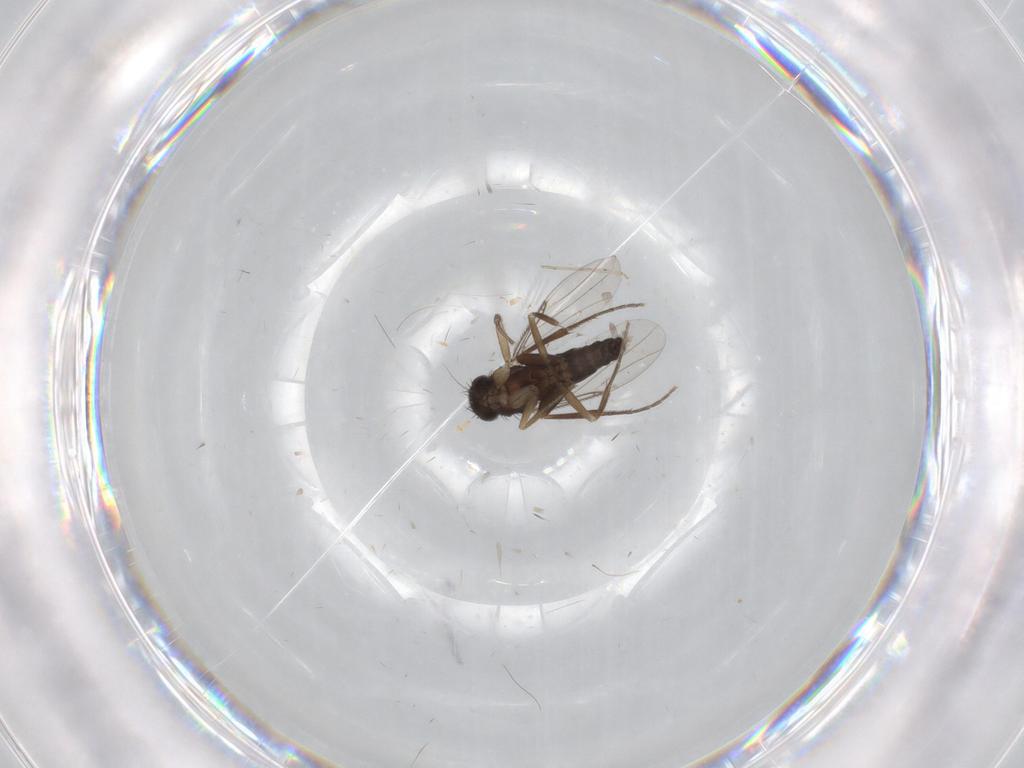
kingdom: Animalia
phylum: Arthropoda
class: Insecta
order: Diptera
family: Phoridae
